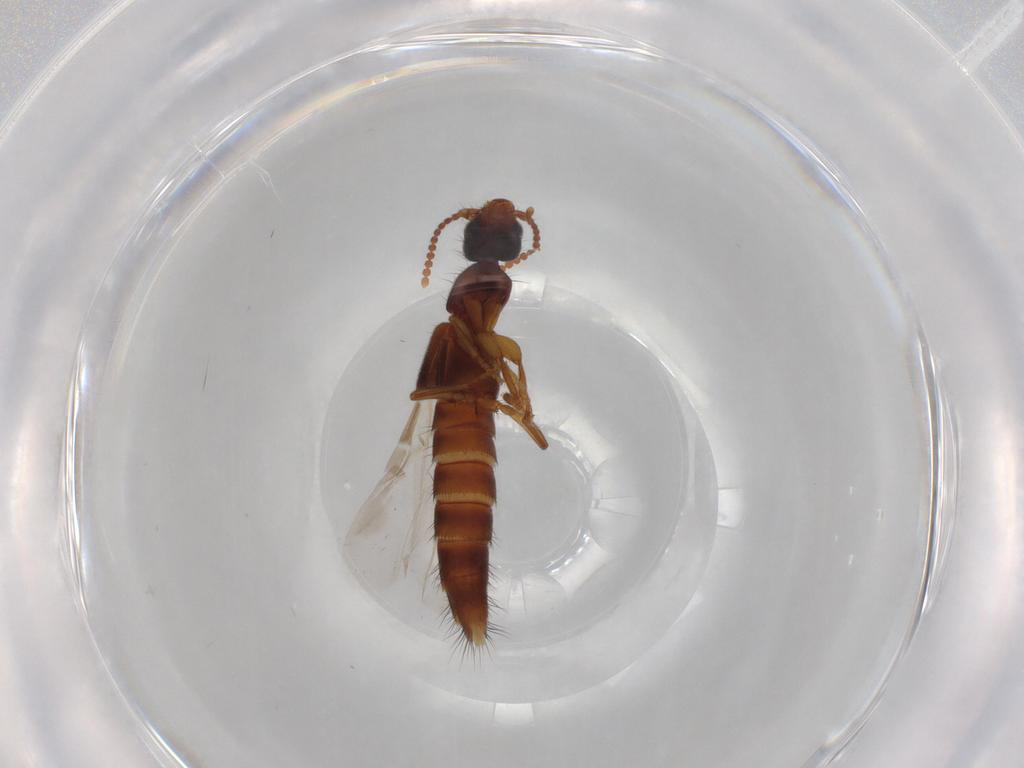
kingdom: Animalia
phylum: Arthropoda
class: Insecta
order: Coleoptera
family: Staphylinidae
